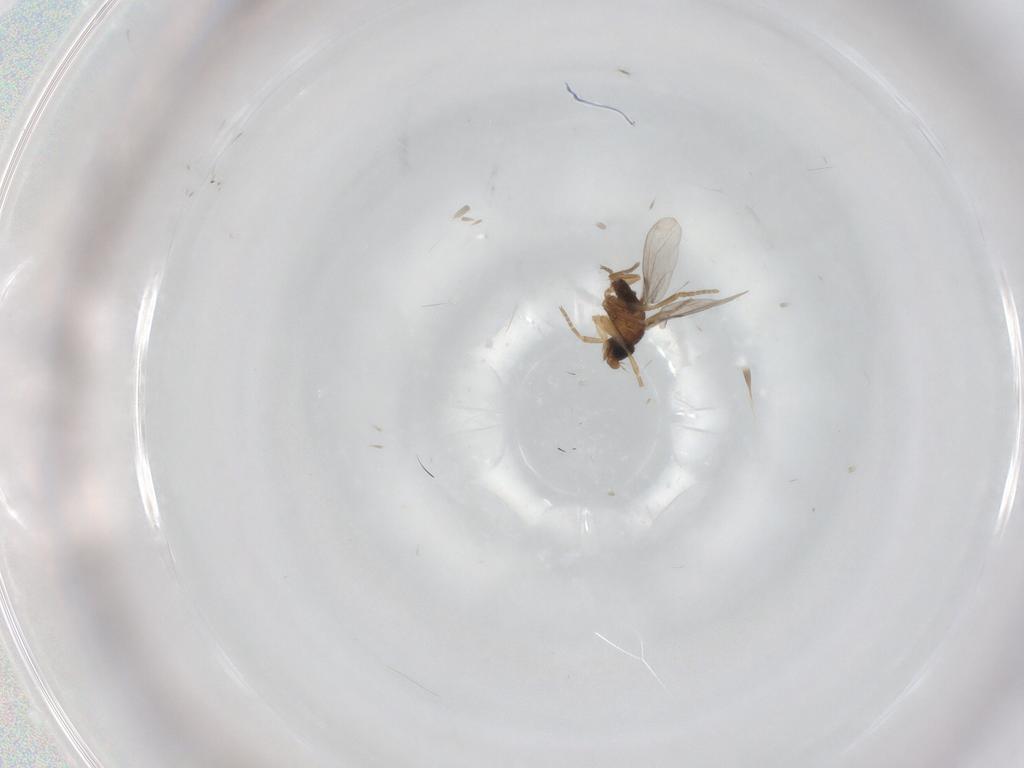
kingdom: Animalia
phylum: Arthropoda
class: Insecta
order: Diptera
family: Phoridae
